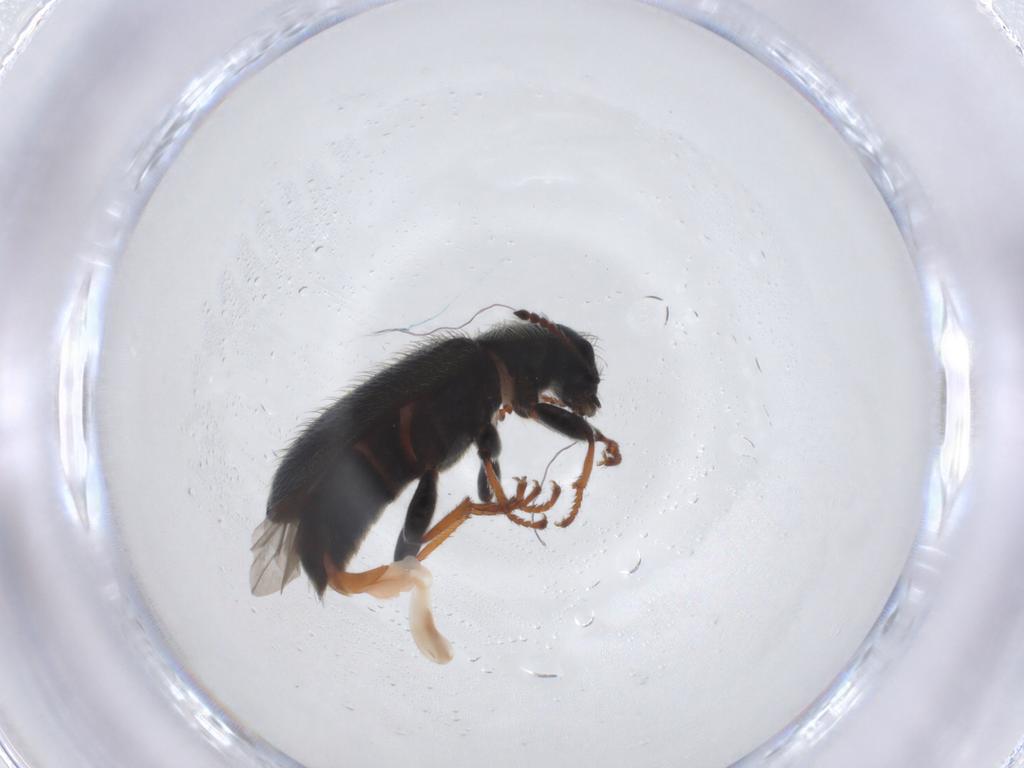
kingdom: Animalia
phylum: Arthropoda
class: Insecta
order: Coleoptera
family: Melyridae
